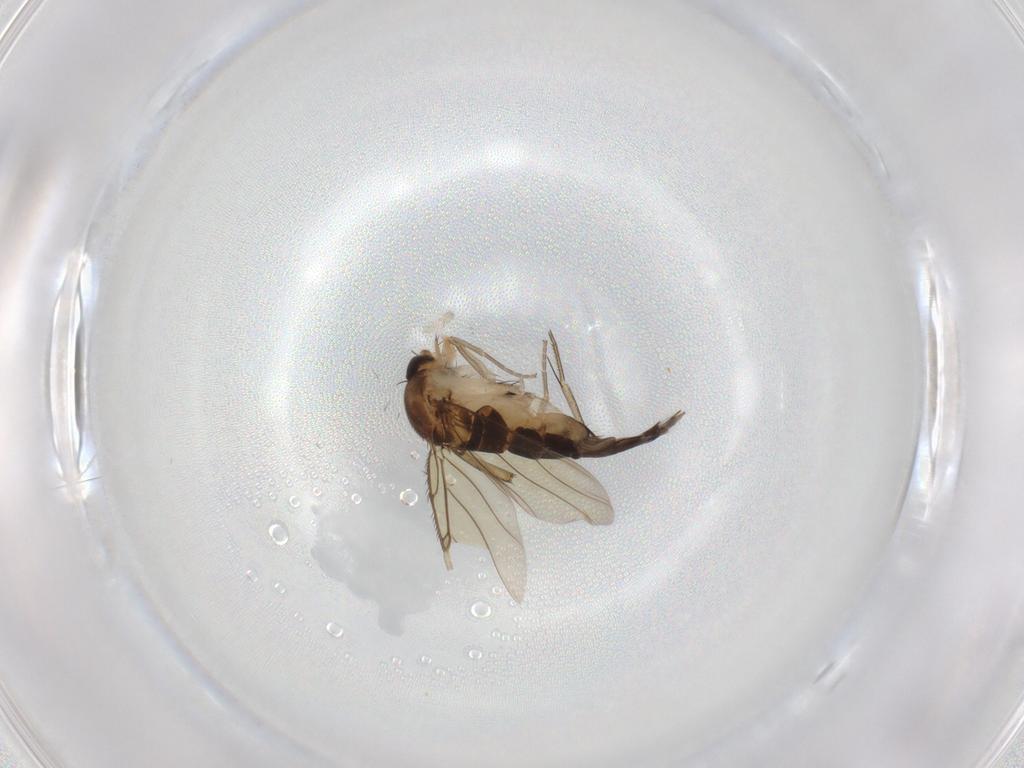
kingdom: Animalia
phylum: Arthropoda
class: Insecta
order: Diptera
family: Phoridae
